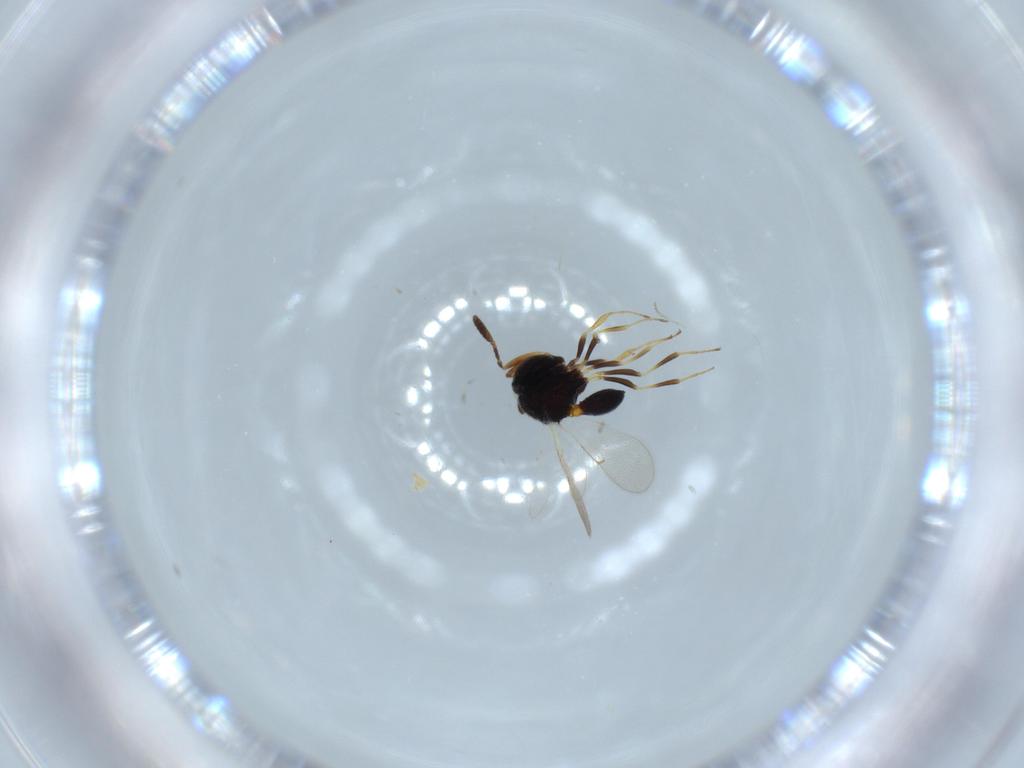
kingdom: Animalia
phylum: Arthropoda
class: Insecta
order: Hymenoptera
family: Scelionidae
